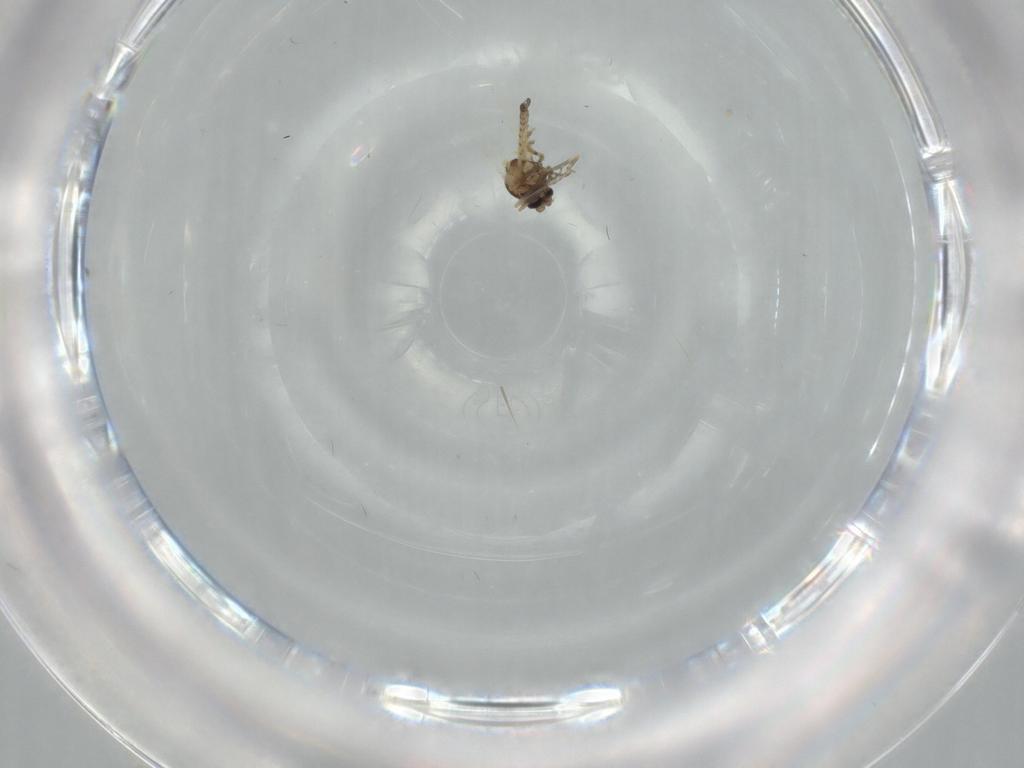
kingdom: Animalia
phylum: Arthropoda
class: Insecta
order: Diptera
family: Ceratopogonidae
